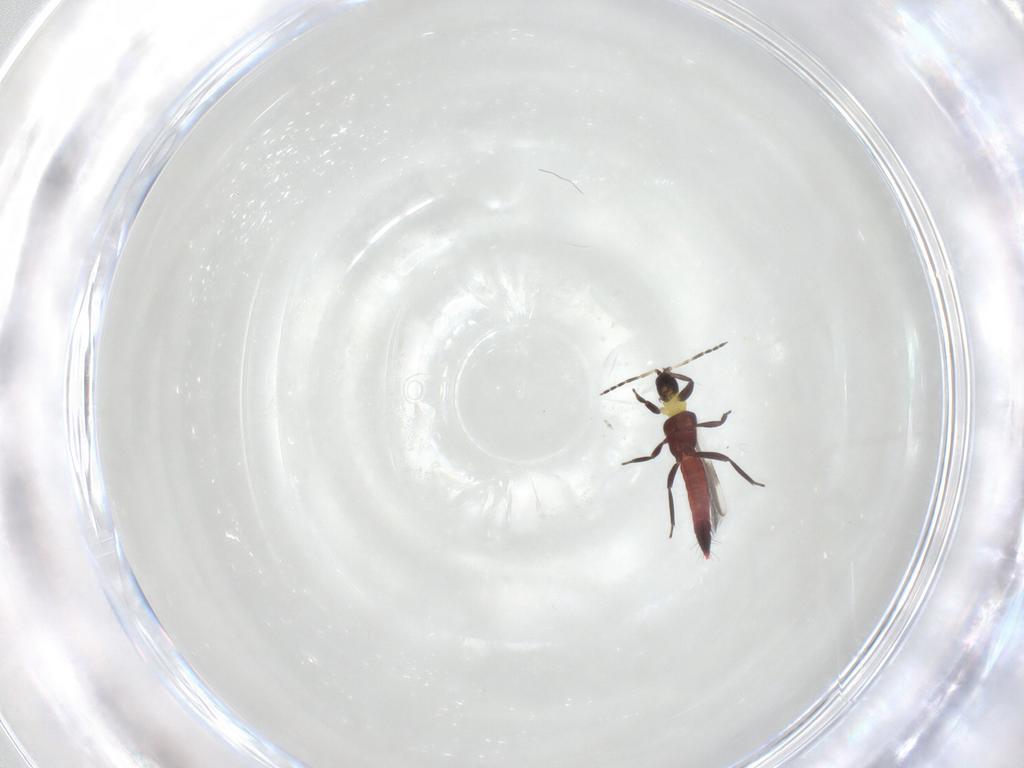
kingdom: Animalia
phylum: Arthropoda
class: Insecta
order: Thysanoptera
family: Aeolothripidae
